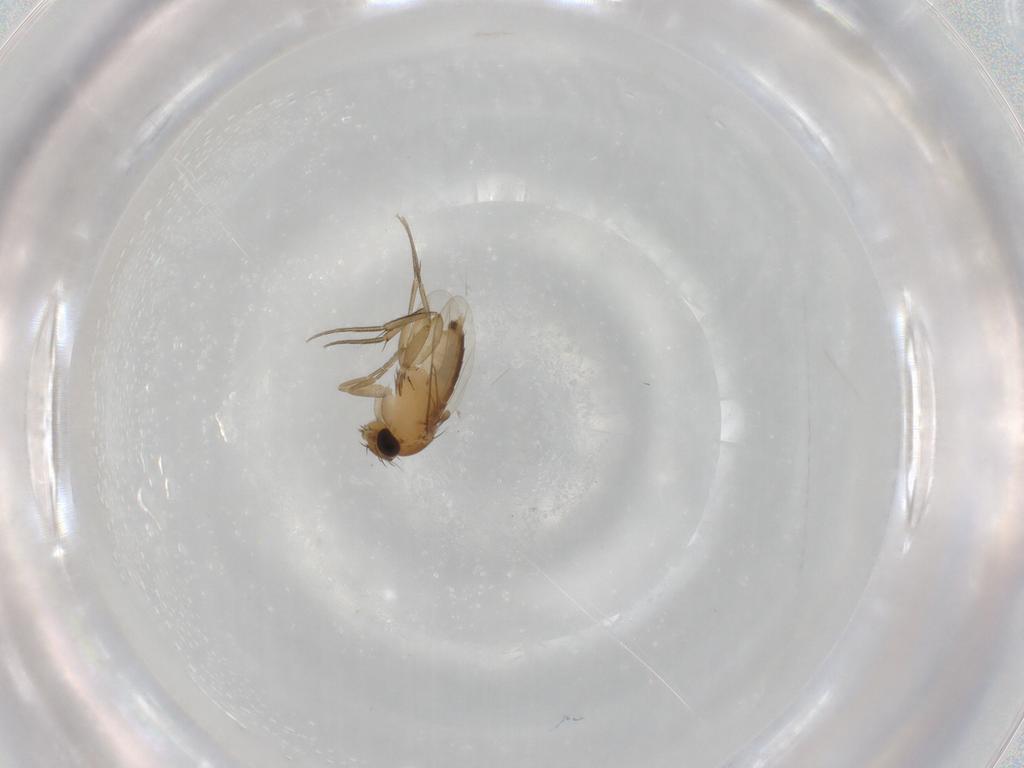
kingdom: Animalia
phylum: Arthropoda
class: Insecta
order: Diptera
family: Phoridae
